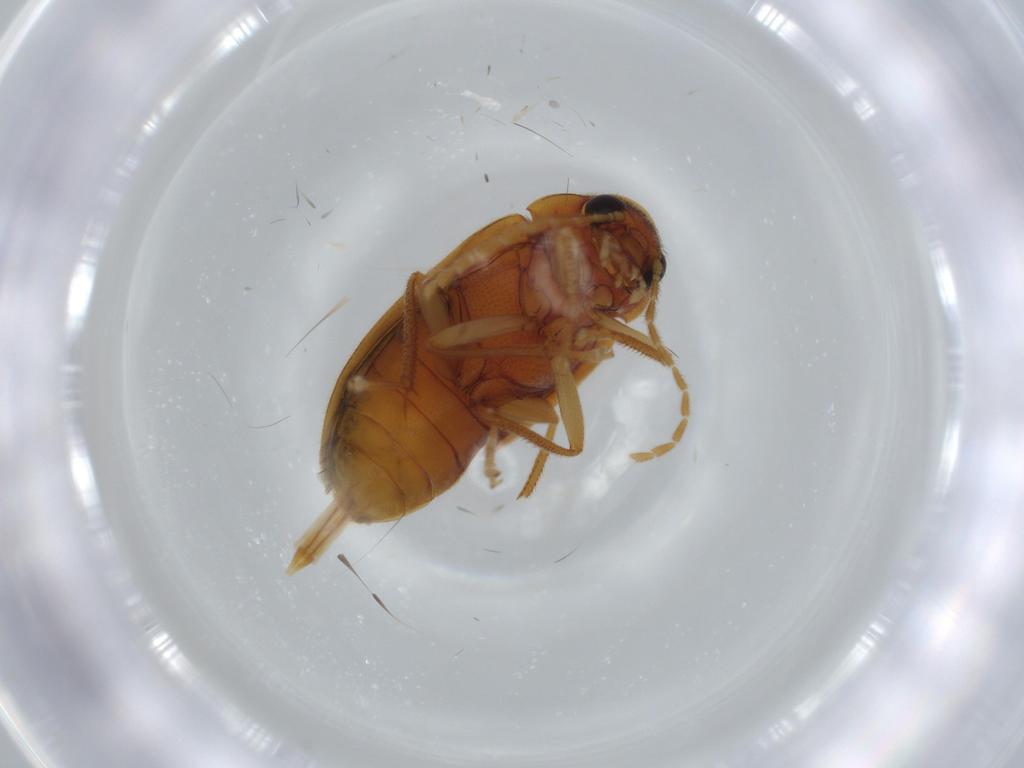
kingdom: Animalia
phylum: Arthropoda
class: Insecta
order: Coleoptera
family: Ptilodactylidae
